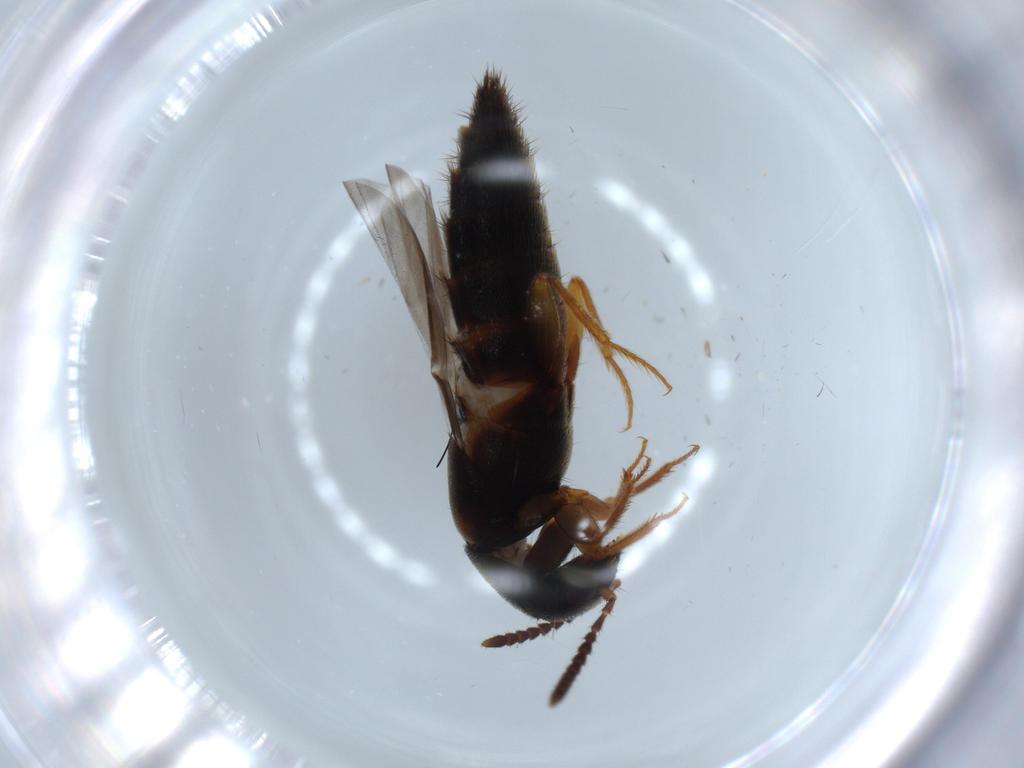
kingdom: Animalia
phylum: Arthropoda
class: Insecta
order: Coleoptera
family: Staphylinidae
